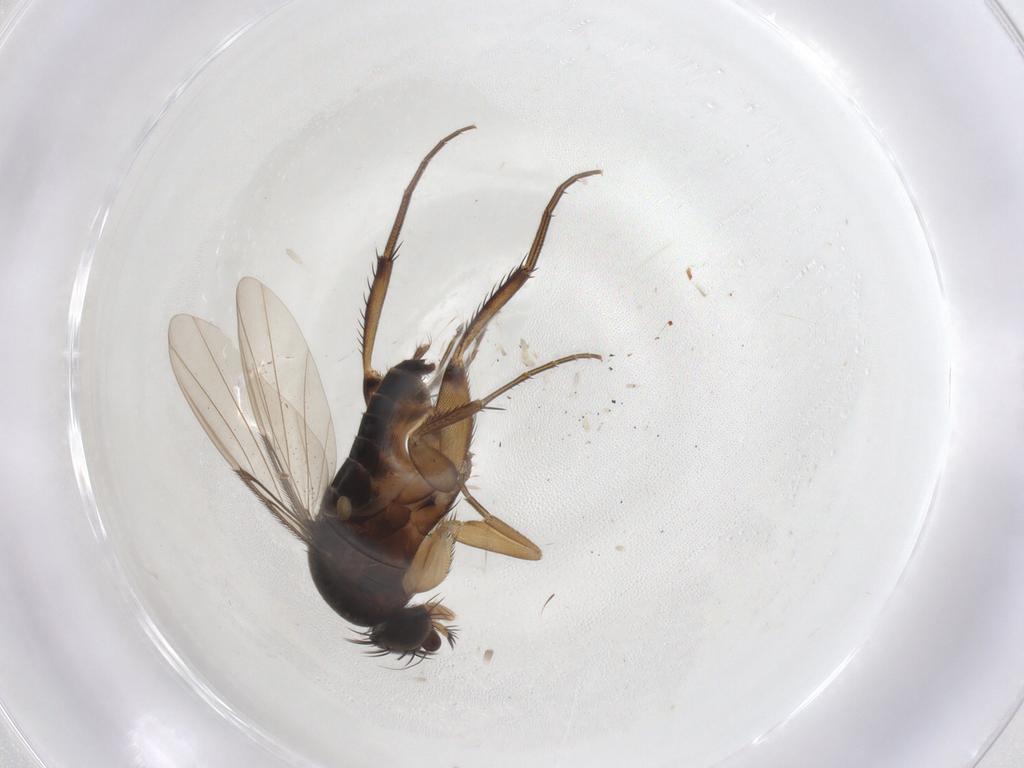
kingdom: Animalia
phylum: Arthropoda
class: Insecta
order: Diptera
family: Phoridae
